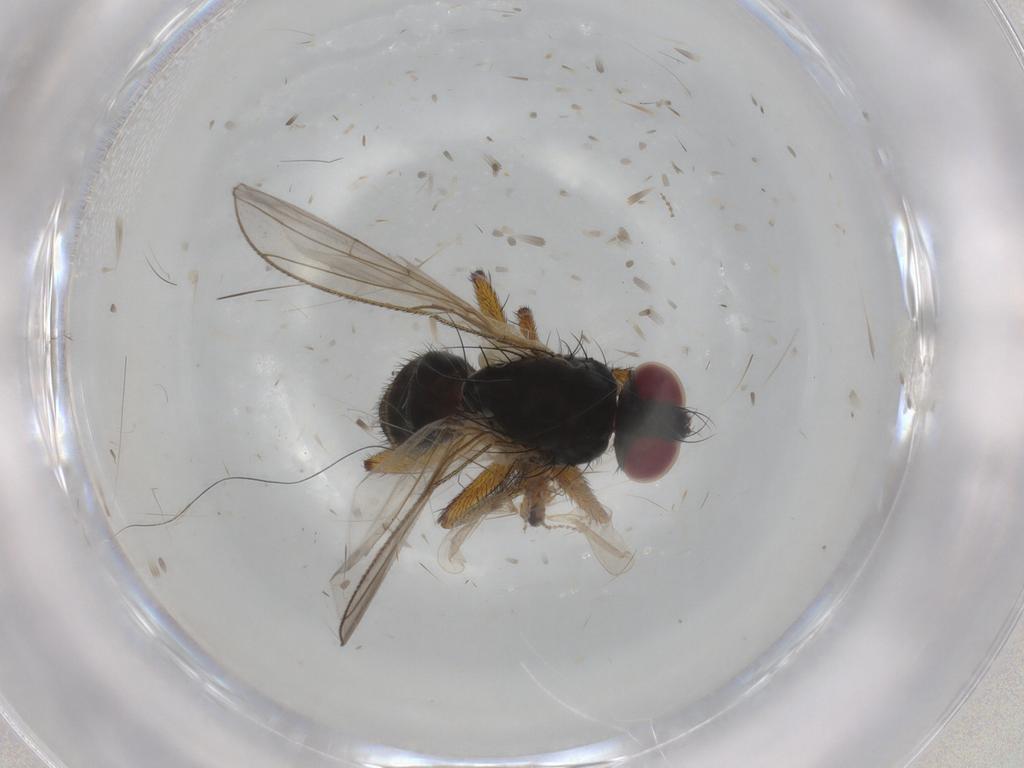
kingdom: Animalia
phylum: Arthropoda
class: Insecta
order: Diptera
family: Muscidae
